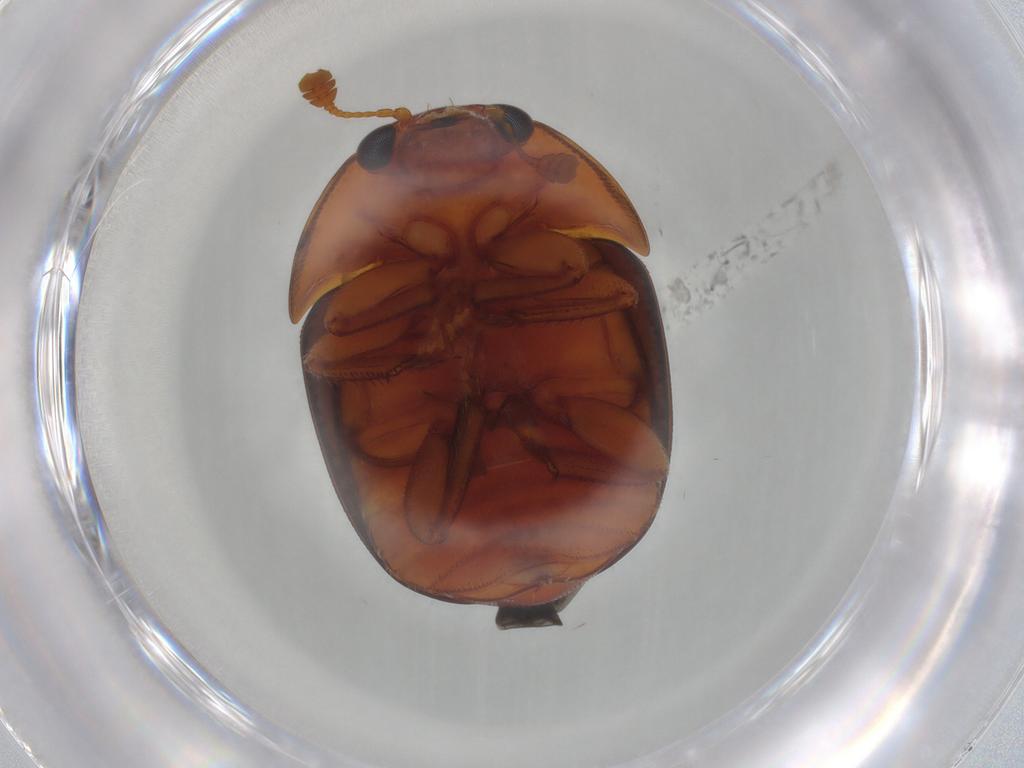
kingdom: Animalia
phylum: Arthropoda
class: Insecta
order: Coleoptera
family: Nitidulidae
